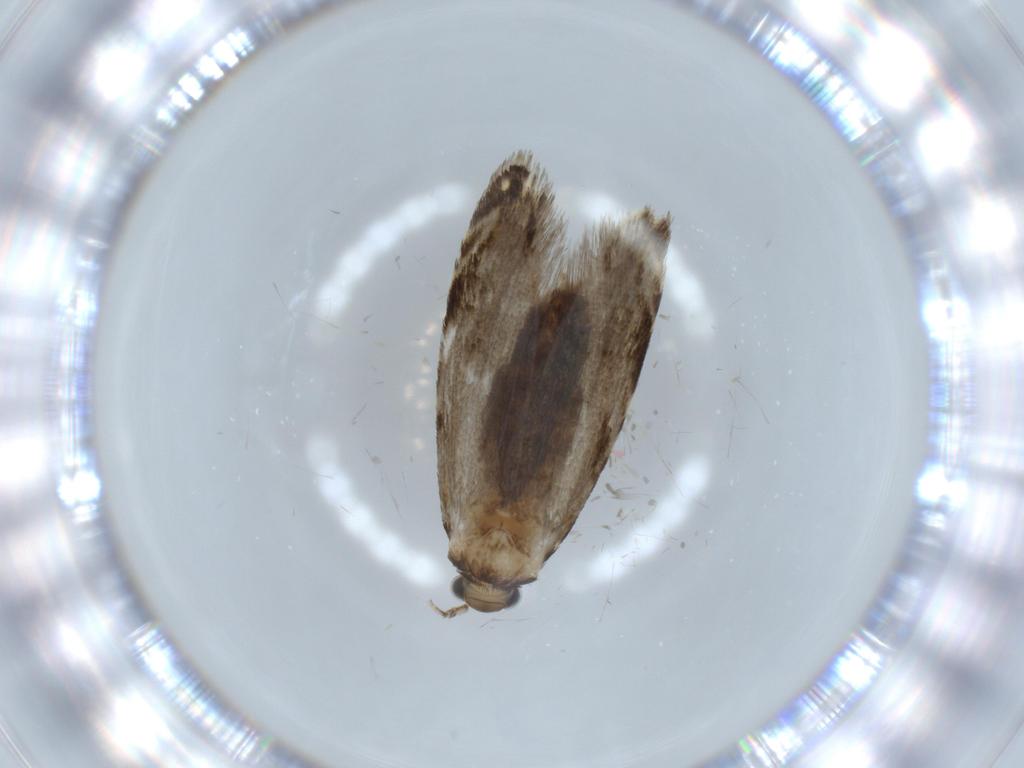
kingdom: Animalia
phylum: Arthropoda
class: Insecta
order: Lepidoptera
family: Tineidae
